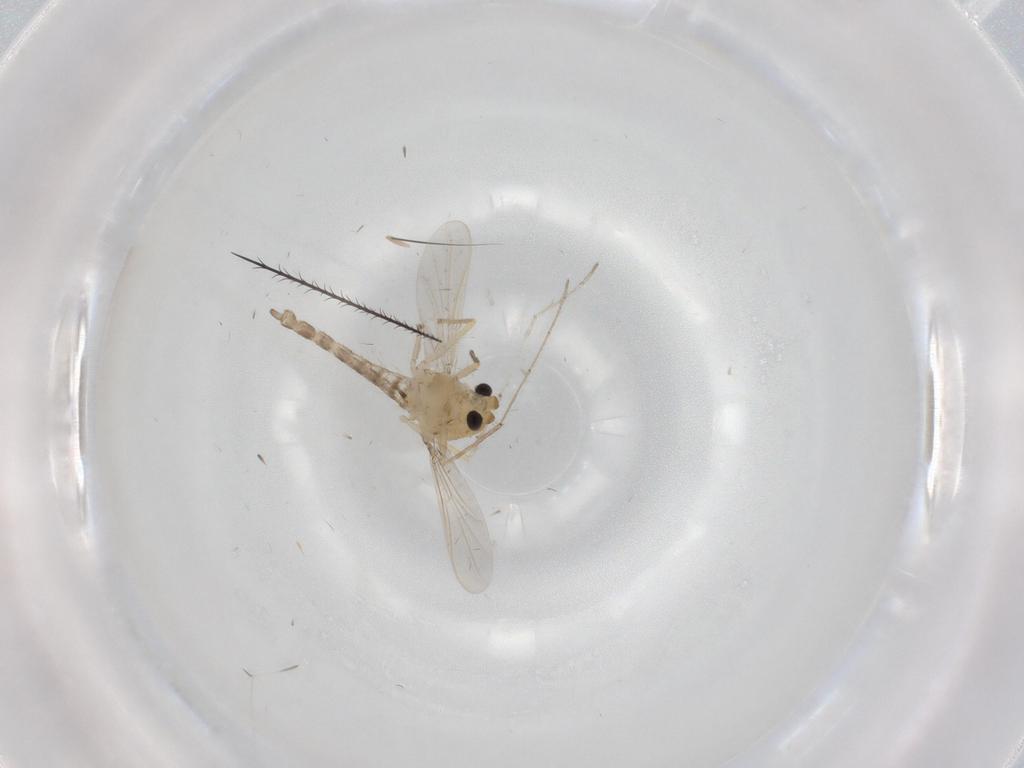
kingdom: Animalia
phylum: Arthropoda
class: Insecta
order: Diptera
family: Chironomidae
